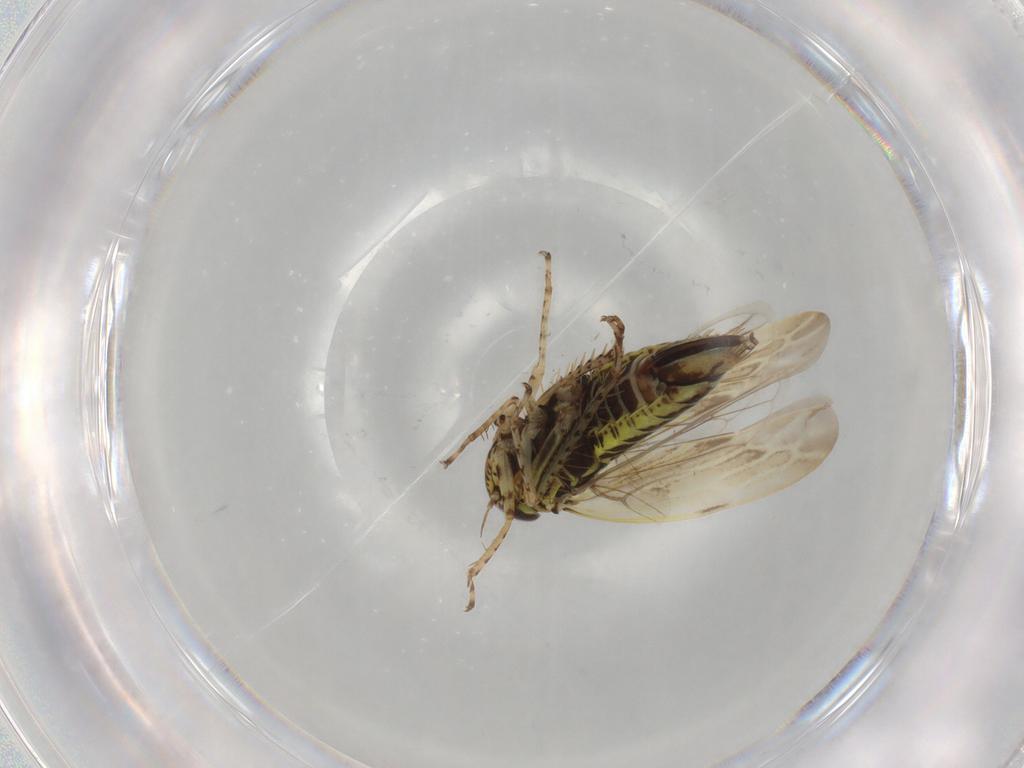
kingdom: Animalia
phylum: Arthropoda
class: Insecta
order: Hemiptera
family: Cicadellidae
